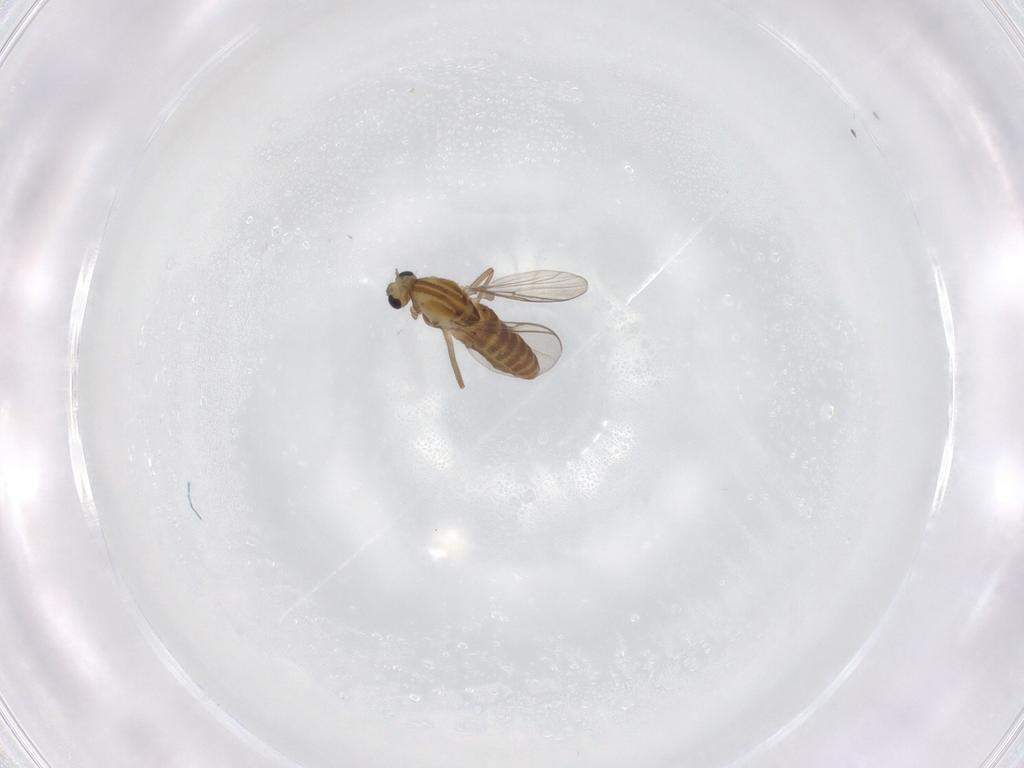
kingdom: Animalia
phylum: Arthropoda
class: Insecta
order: Diptera
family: Chironomidae
